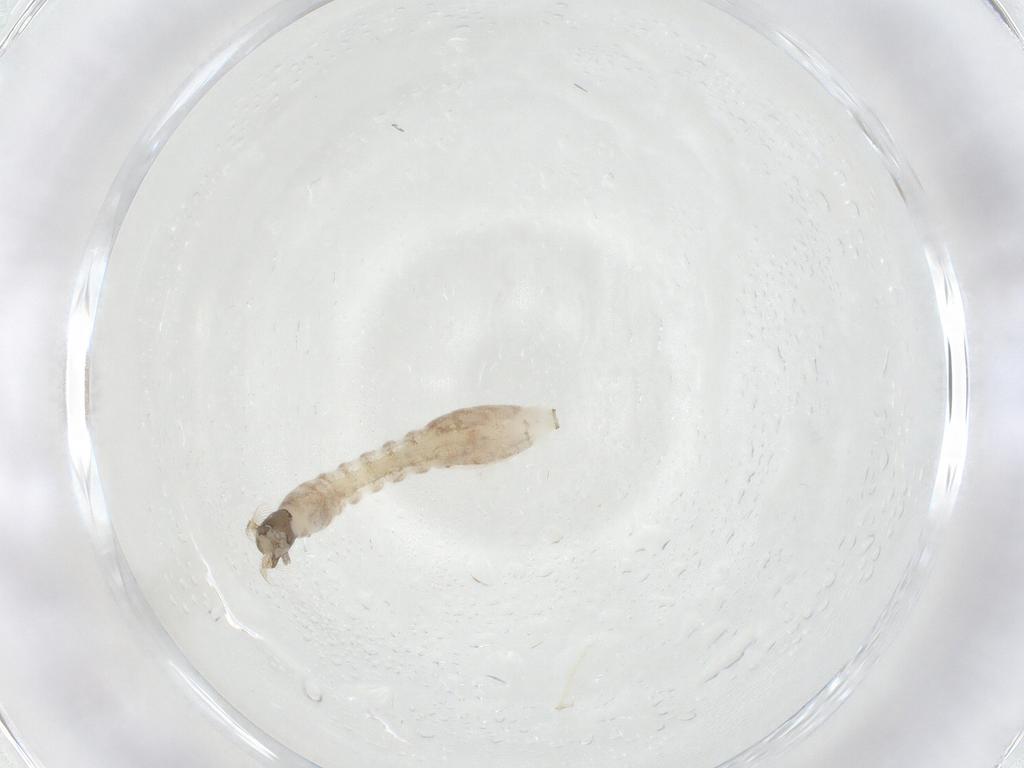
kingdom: Animalia
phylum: Arthropoda
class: Insecta
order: Diptera
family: Simuliidae
